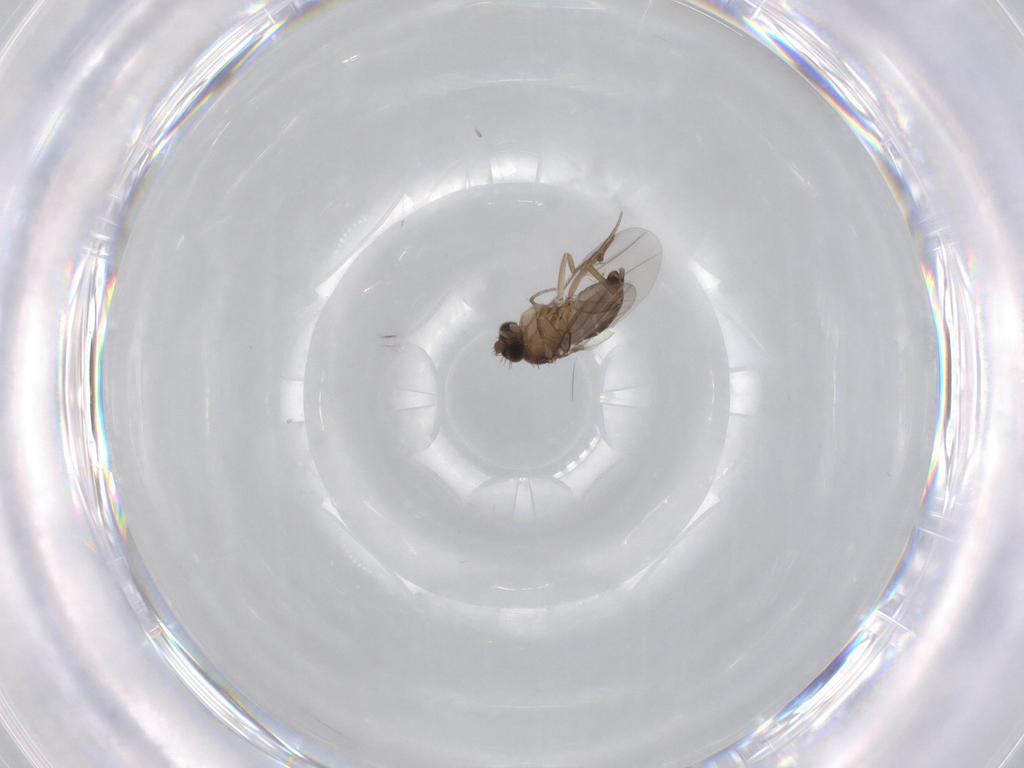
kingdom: Animalia
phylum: Arthropoda
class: Insecta
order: Diptera
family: Phoridae
